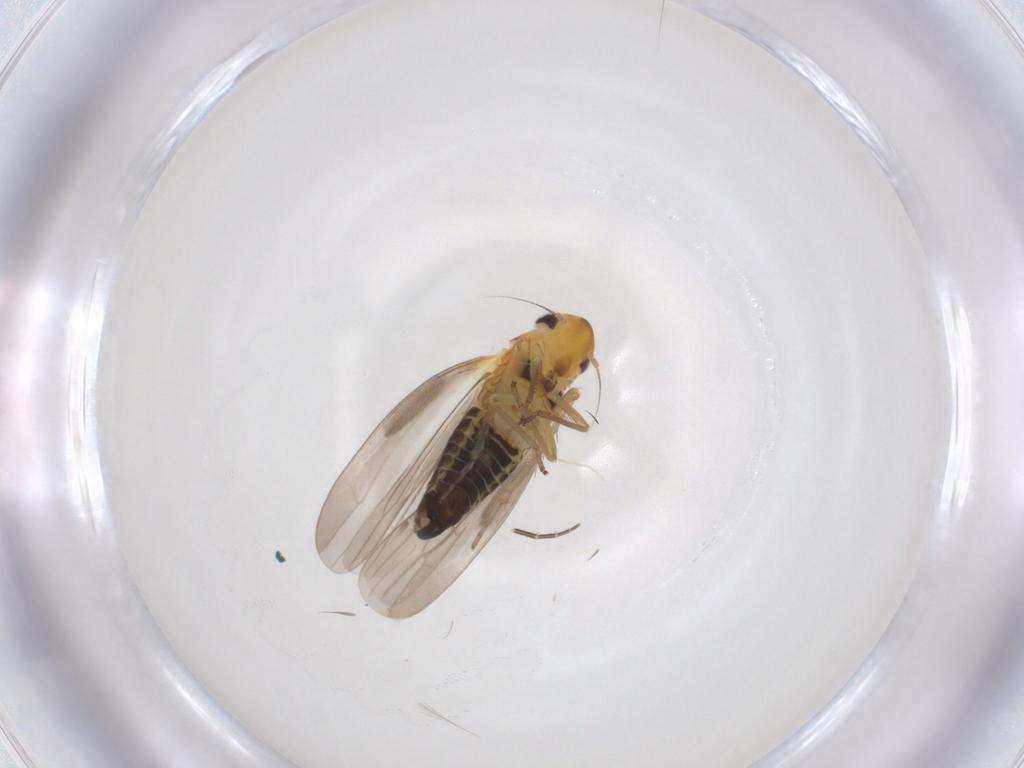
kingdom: Animalia
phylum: Arthropoda
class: Insecta
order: Hemiptera
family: Cicadellidae
